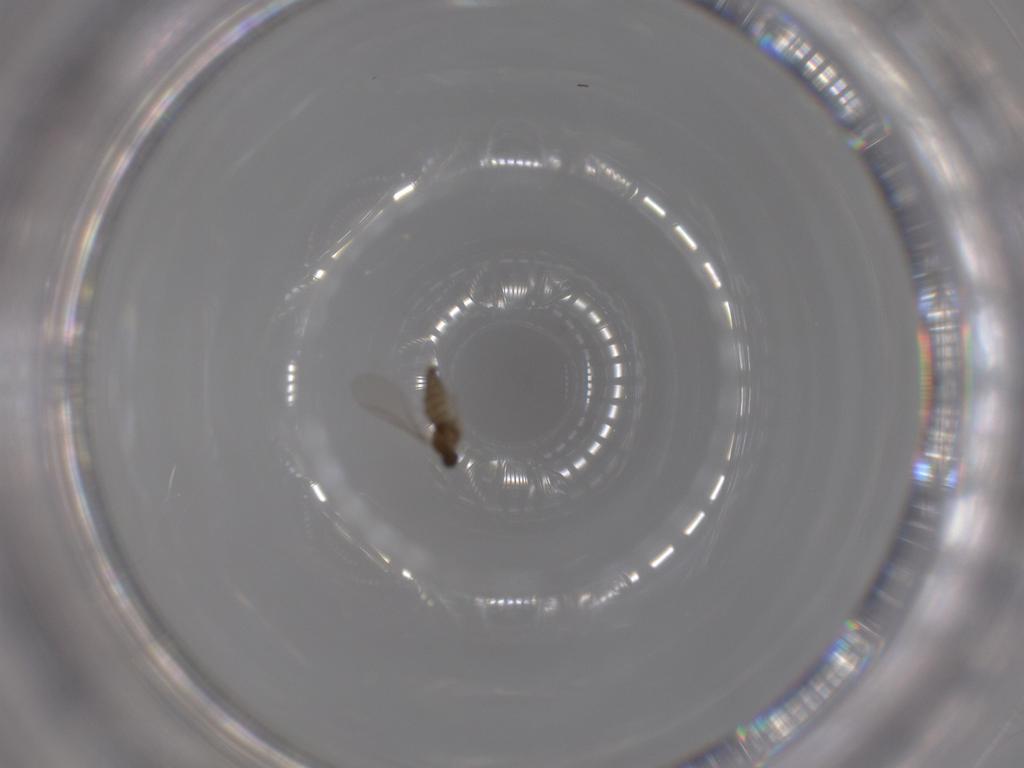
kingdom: Animalia
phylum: Arthropoda
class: Insecta
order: Diptera
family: Cecidomyiidae
